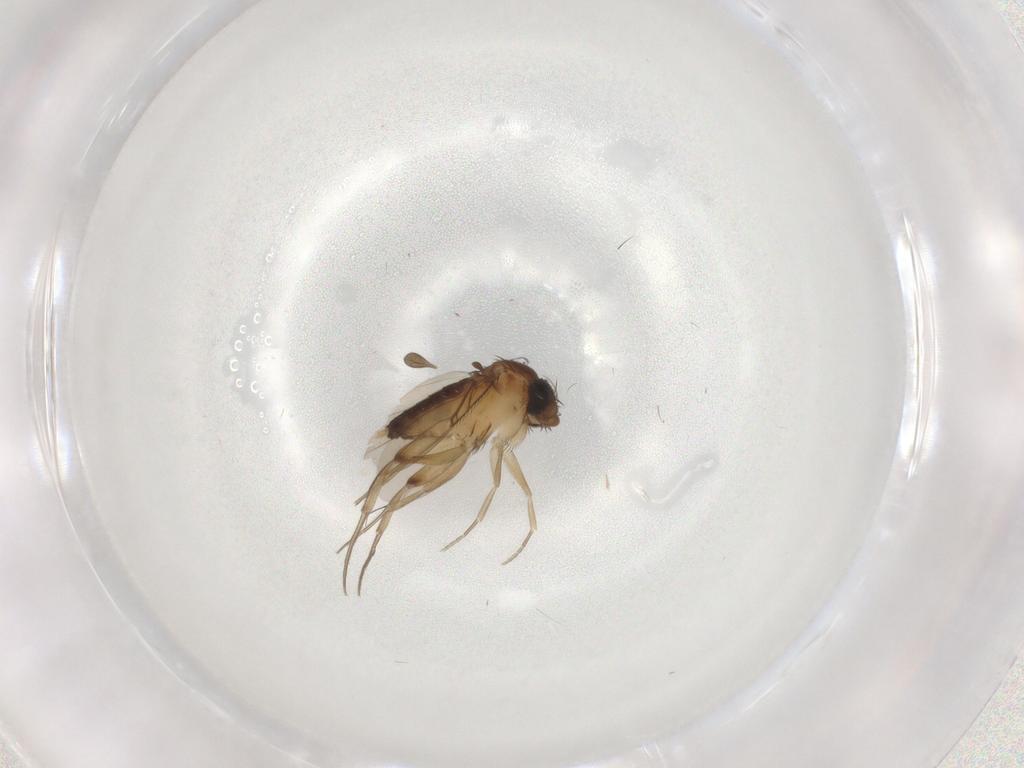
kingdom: Animalia
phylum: Arthropoda
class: Insecta
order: Diptera
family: Phoridae
